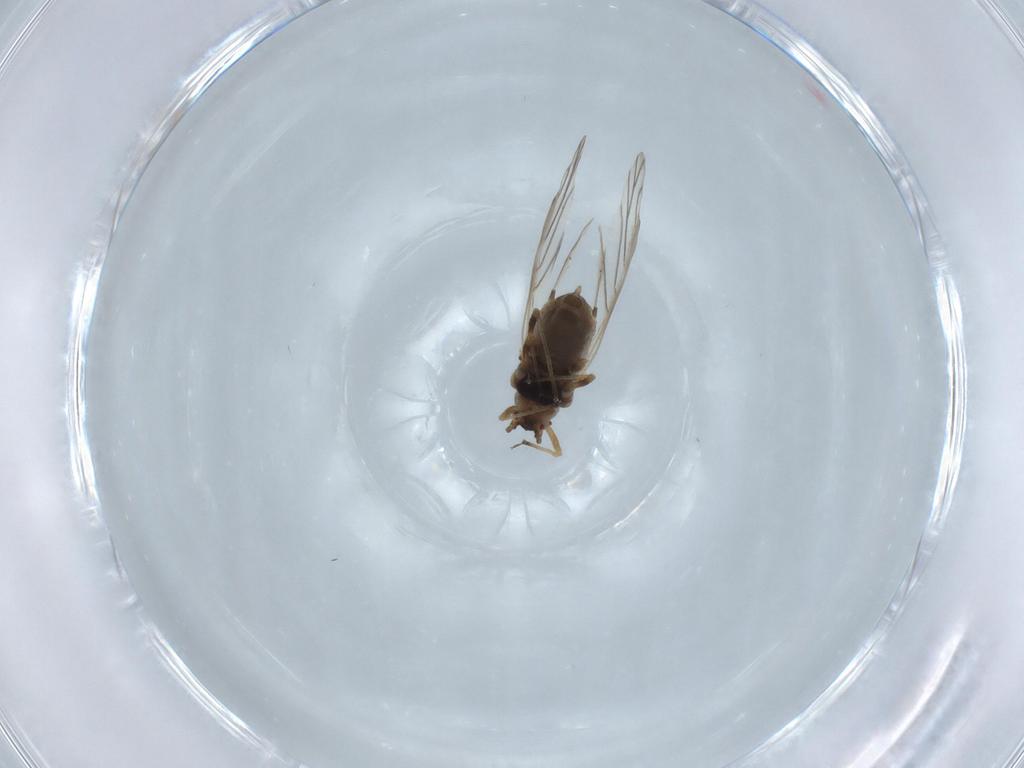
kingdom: Animalia
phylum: Arthropoda
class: Insecta
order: Hemiptera
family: Aphididae
